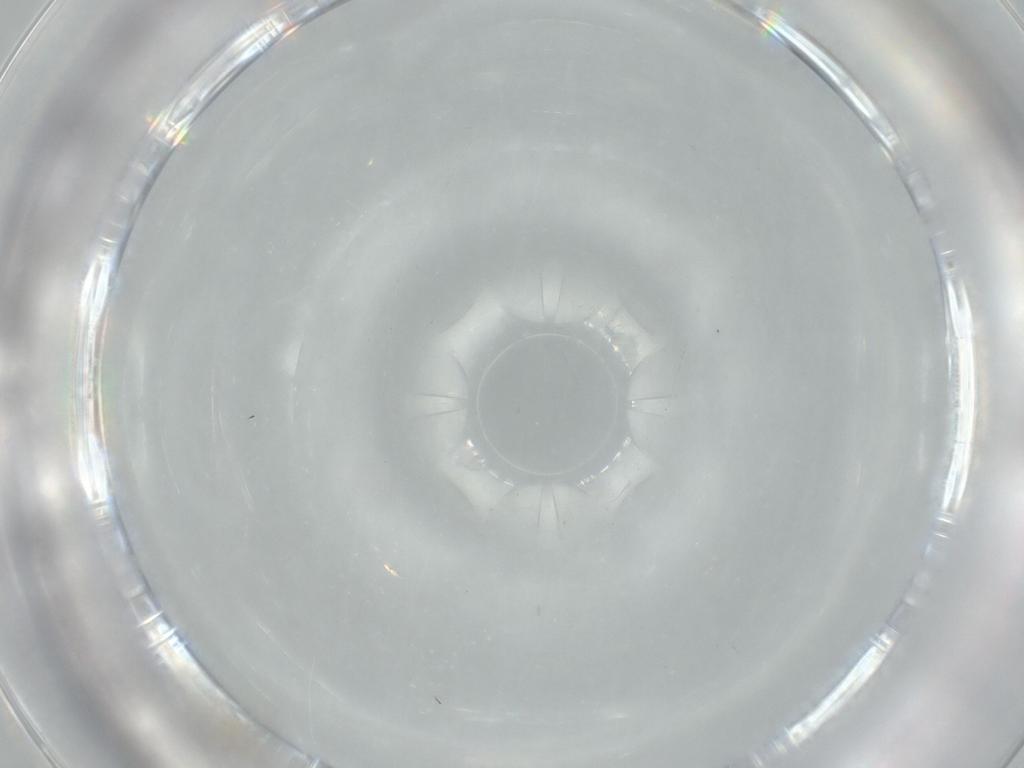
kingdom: Animalia
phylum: Arthropoda
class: Insecta
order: Diptera
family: Cecidomyiidae
